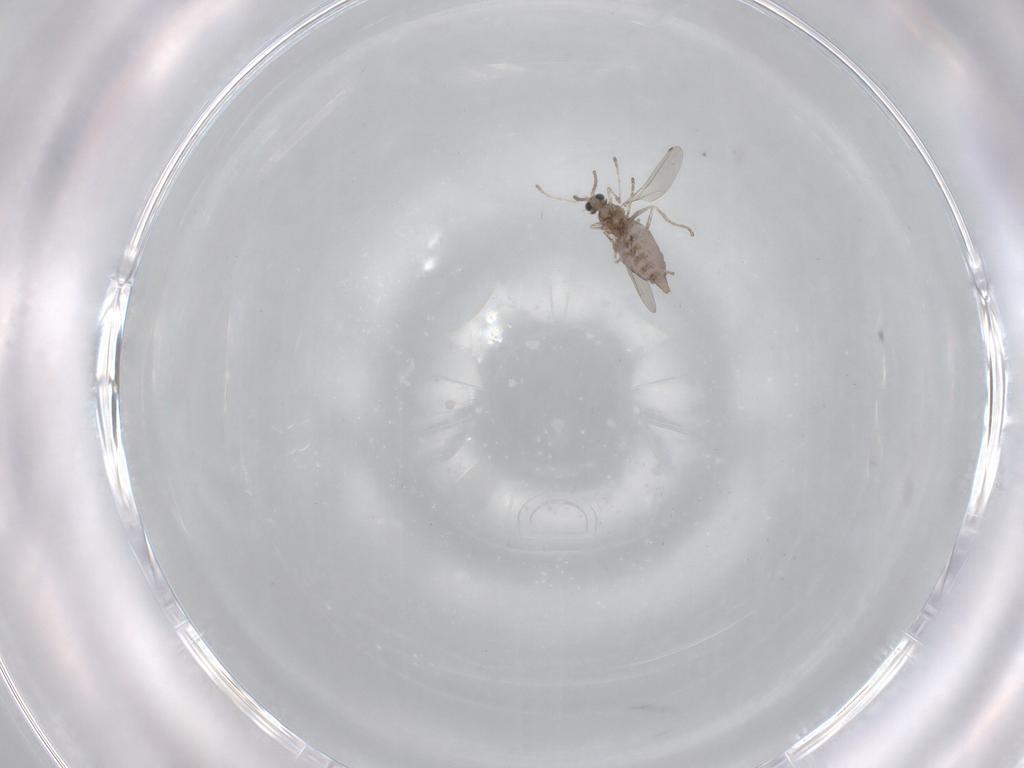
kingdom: Animalia
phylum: Arthropoda
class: Insecta
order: Diptera
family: Cecidomyiidae
